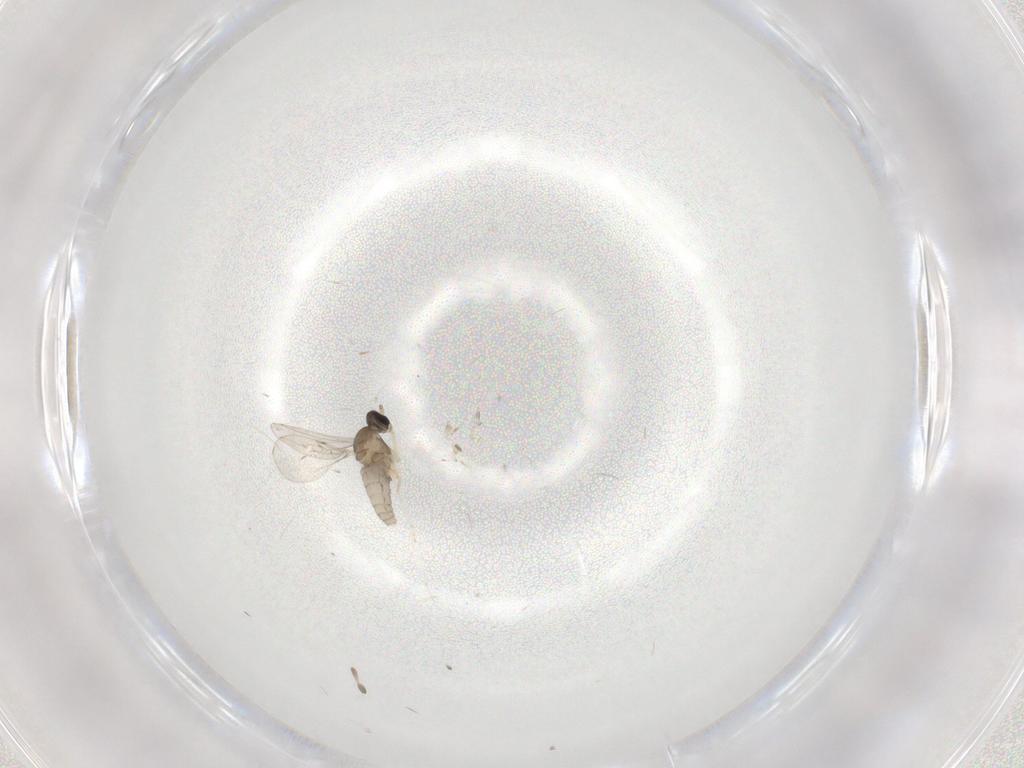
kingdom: Animalia
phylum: Arthropoda
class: Insecta
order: Diptera
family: Cecidomyiidae
